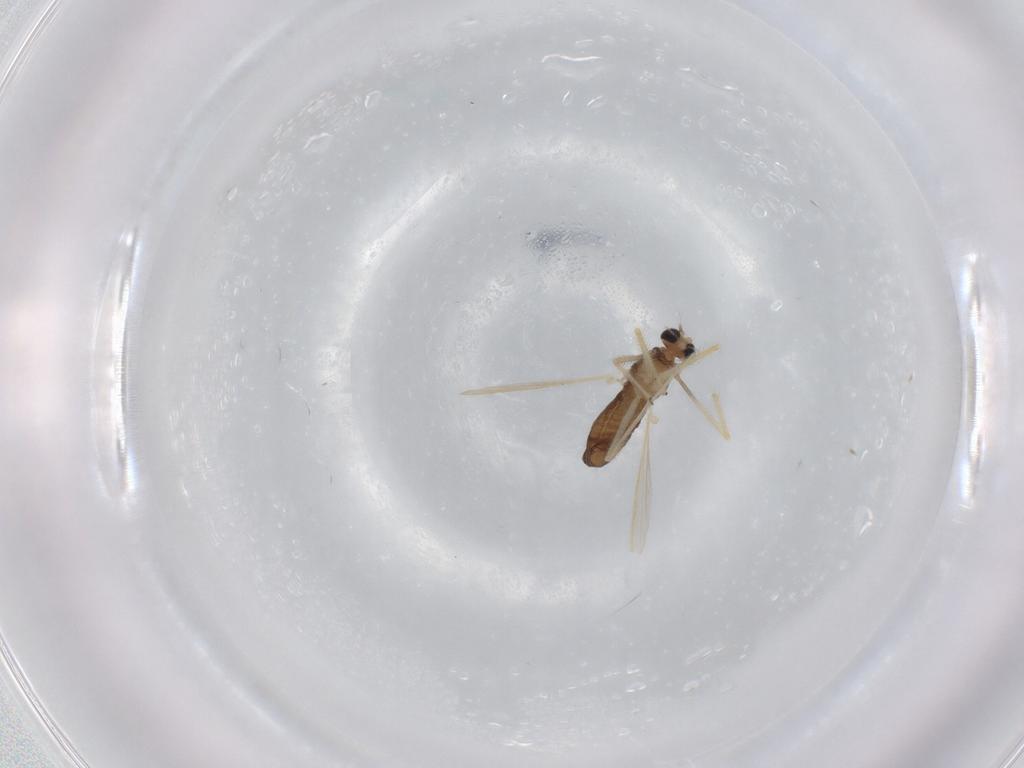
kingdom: Animalia
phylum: Arthropoda
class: Insecta
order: Diptera
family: Chironomidae
